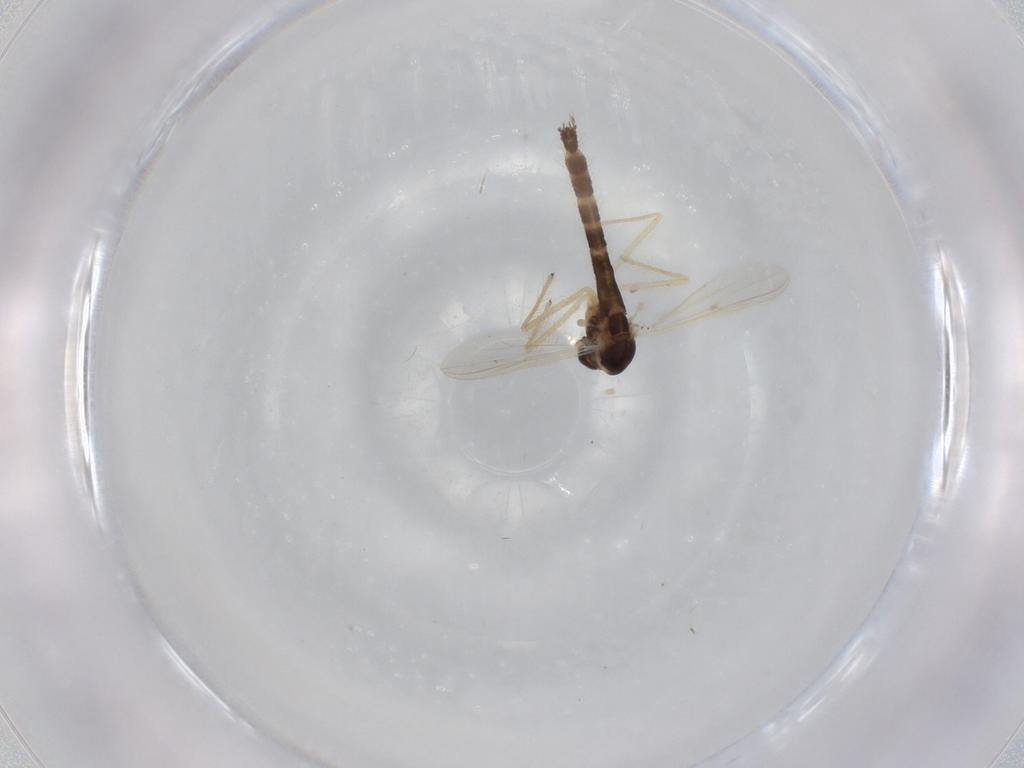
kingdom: Animalia
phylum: Arthropoda
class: Insecta
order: Diptera
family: Chironomidae
